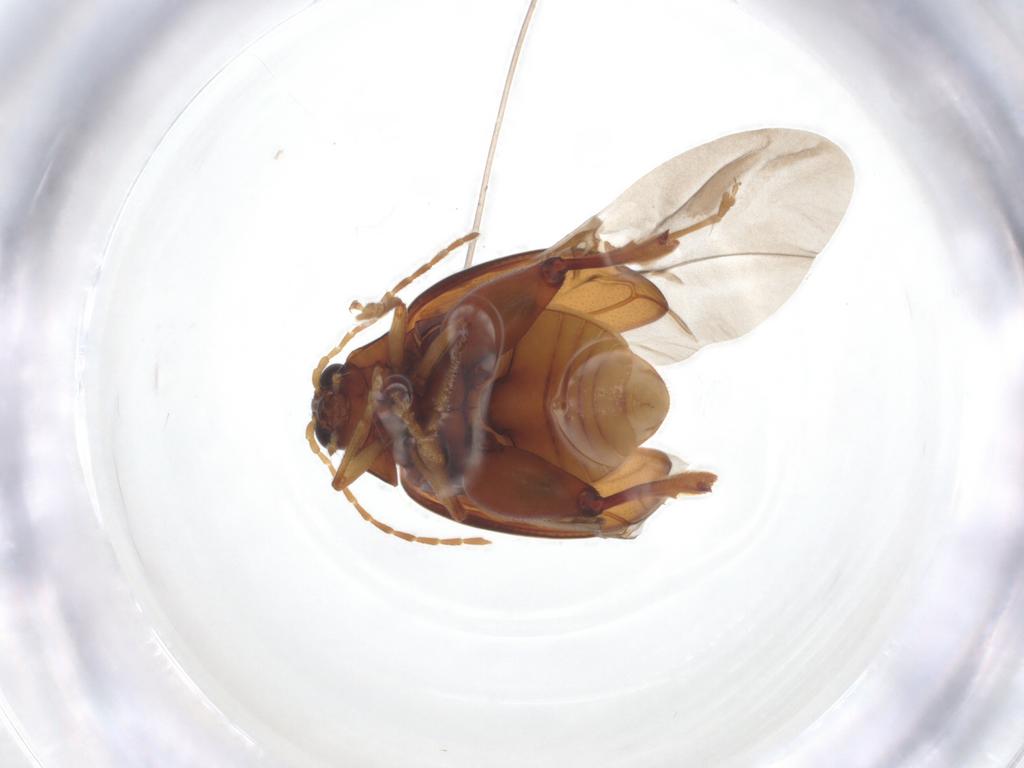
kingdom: Animalia
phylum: Arthropoda
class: Insecta
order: Coleoptera
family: Chrysomelidae
